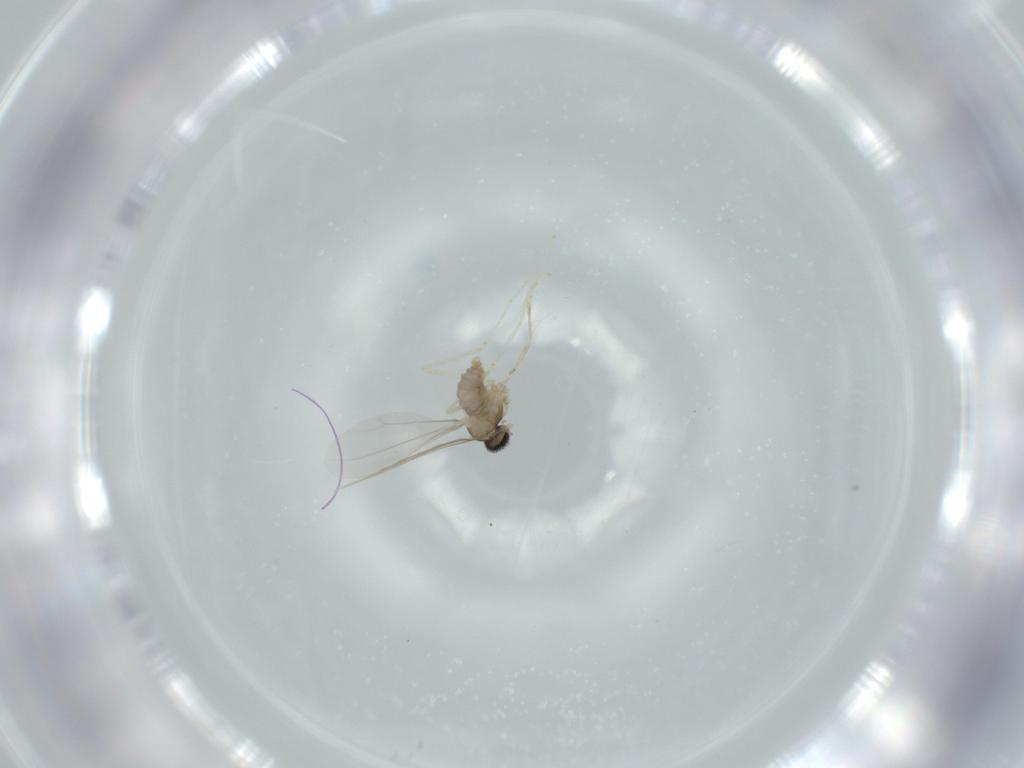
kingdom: Animalia
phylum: Arthropoda
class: Insecta
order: Diptera
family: Cecidomyiidae
